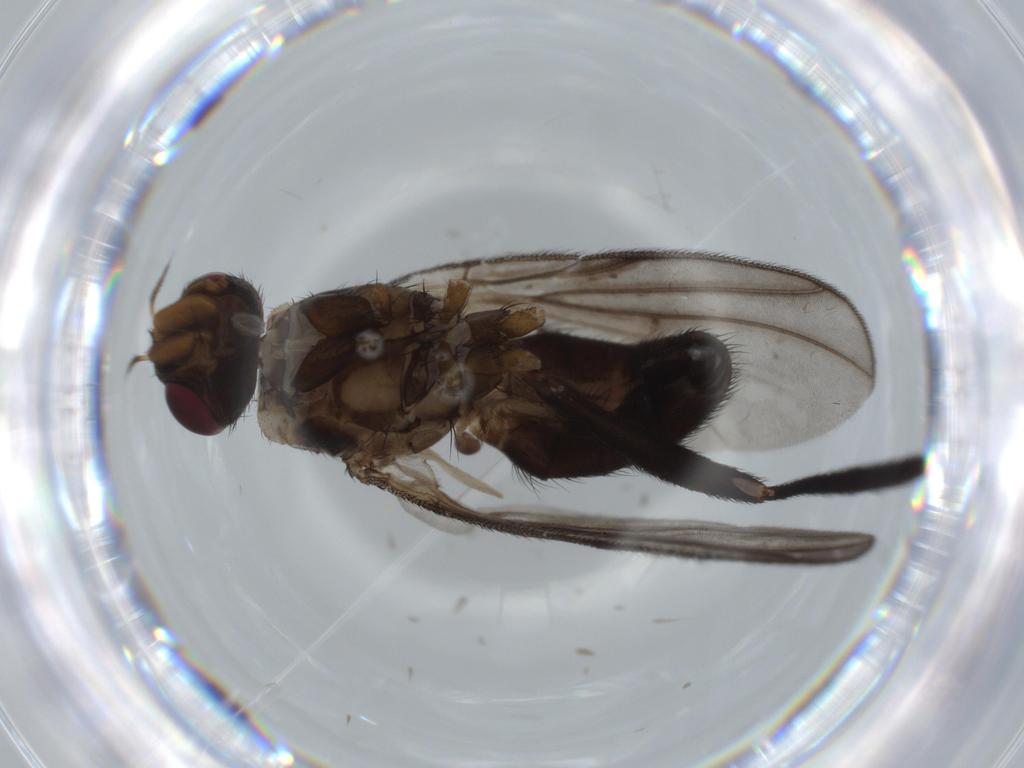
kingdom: Animalia
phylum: Arthropoda
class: Insecta
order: Diptera
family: Calliphoridae
